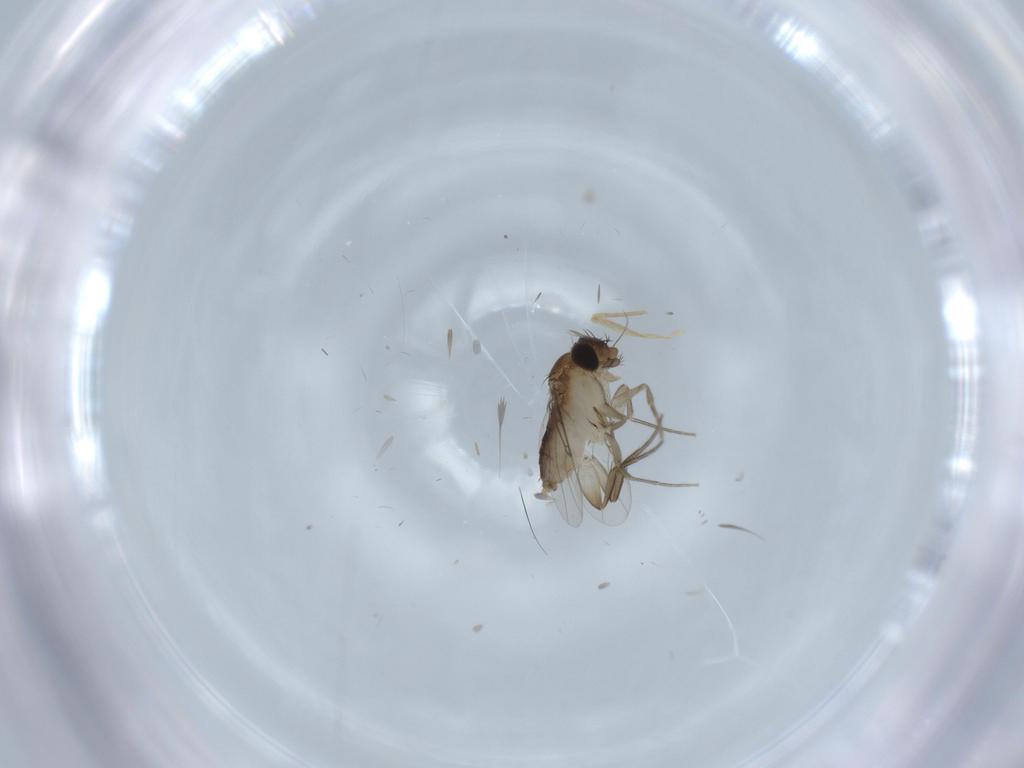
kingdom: Animalia
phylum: Arthropoda
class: Insecta
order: Diptera
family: Phoridae
